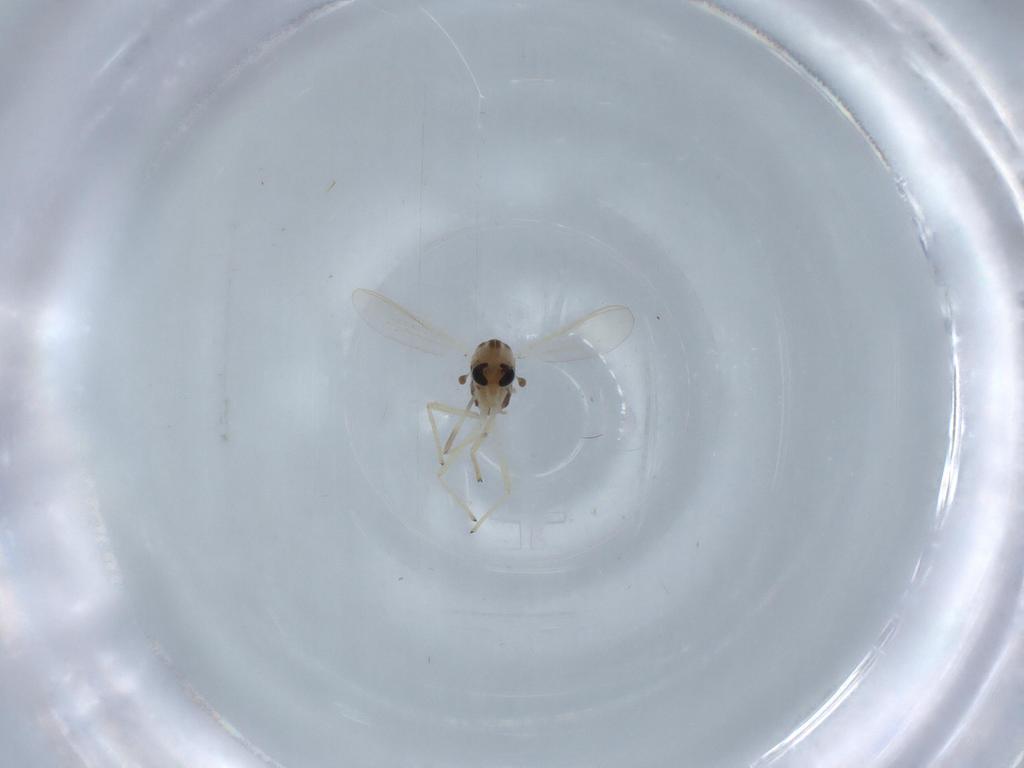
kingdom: Animalia
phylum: Arthropoda
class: Insecta
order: Diptera
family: Chironomidae
